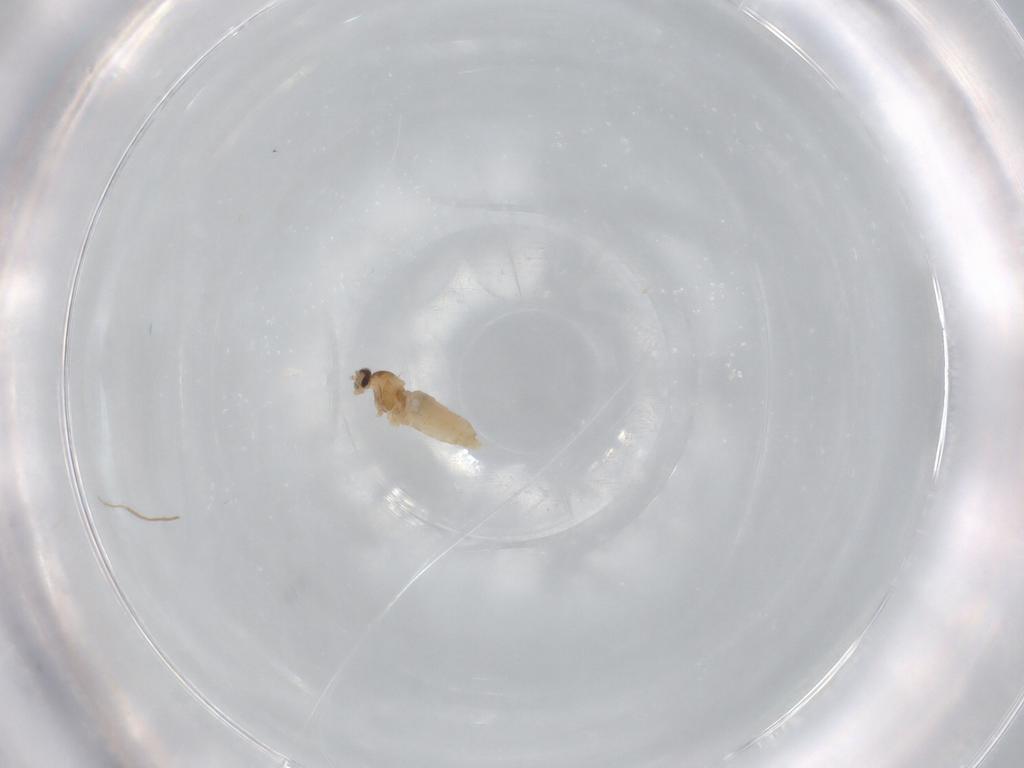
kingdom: Animalia
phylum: Arthropoda
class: Insecta
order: Diptera
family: Cecidomyiidae
